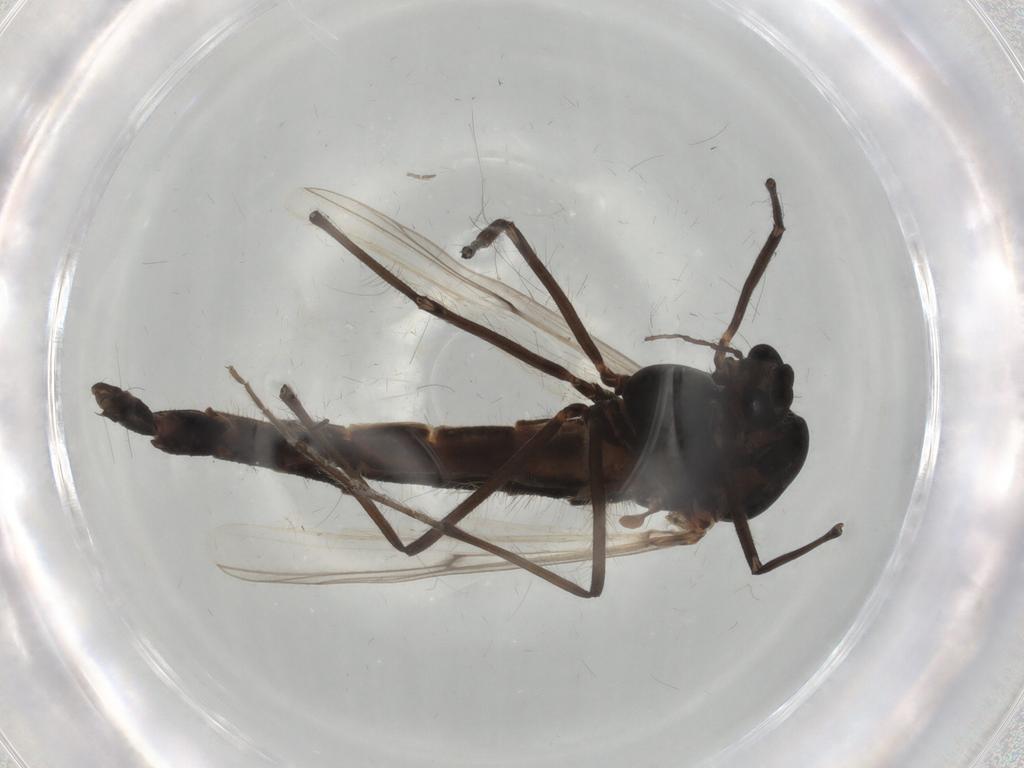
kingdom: Animalia
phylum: Arthropoda
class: Insecta
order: Diptera
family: Chironomidae
